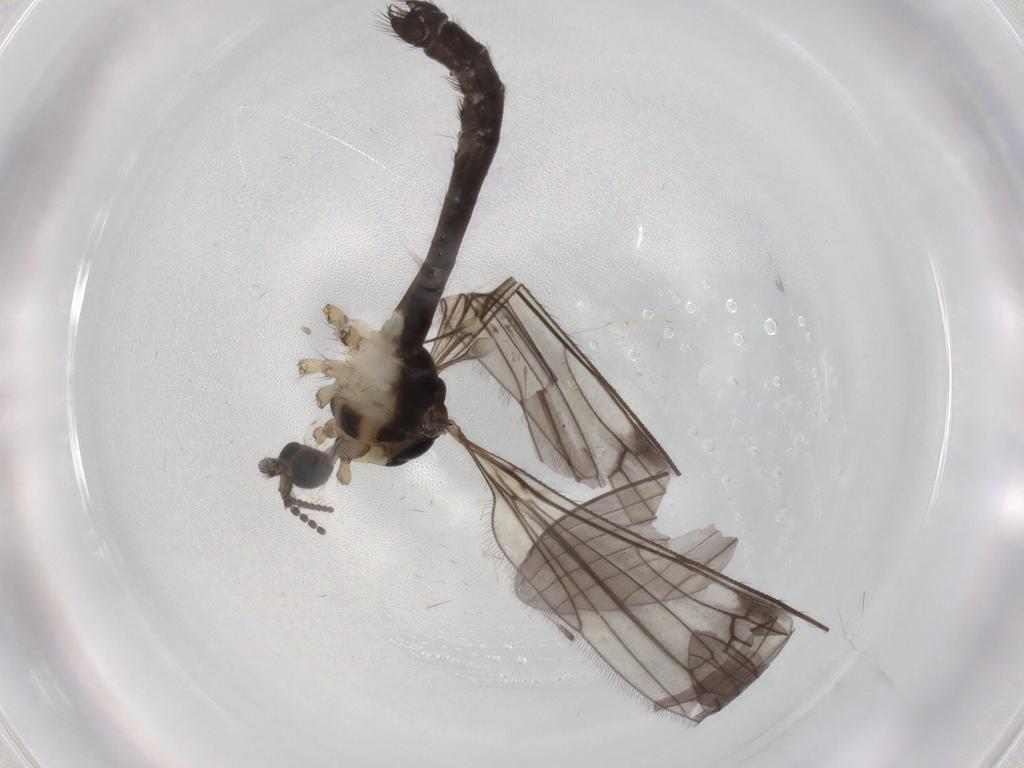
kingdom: Animalia
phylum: Arthropoda
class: Insecta
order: Diptera
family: Limoniidae
